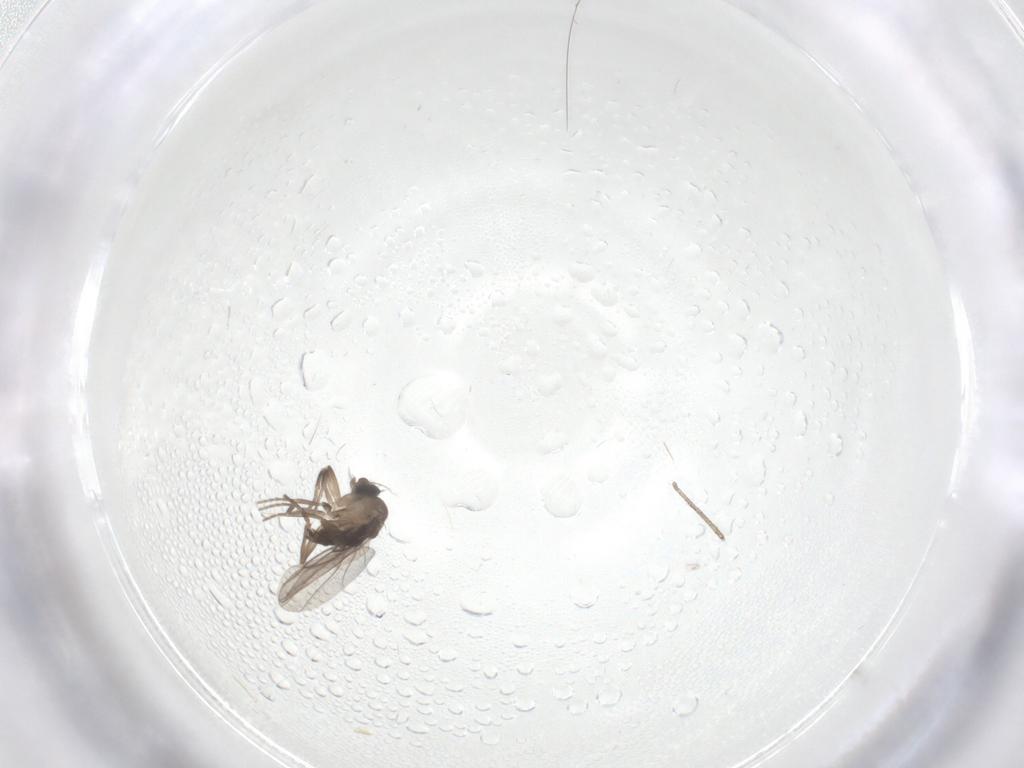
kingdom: Animalia
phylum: Arthropoda
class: Insecta
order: Diptera
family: Phoridae
